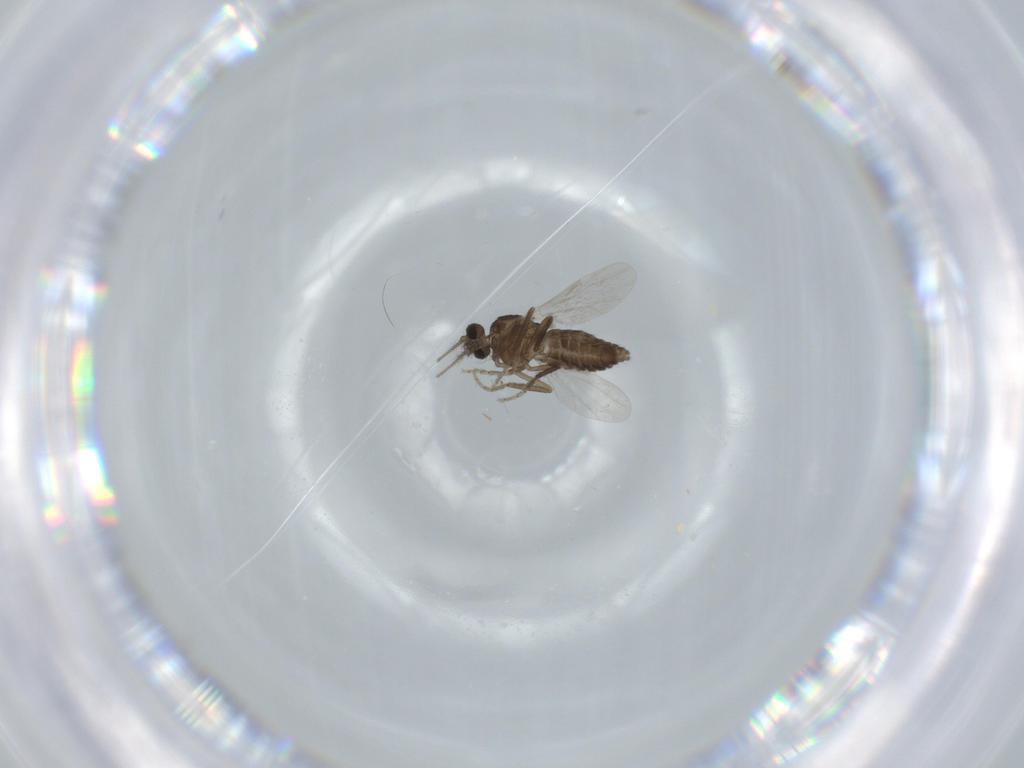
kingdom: Animalia
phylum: Arthropoda
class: Insecta
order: Diptera
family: Ceratopogonidae
